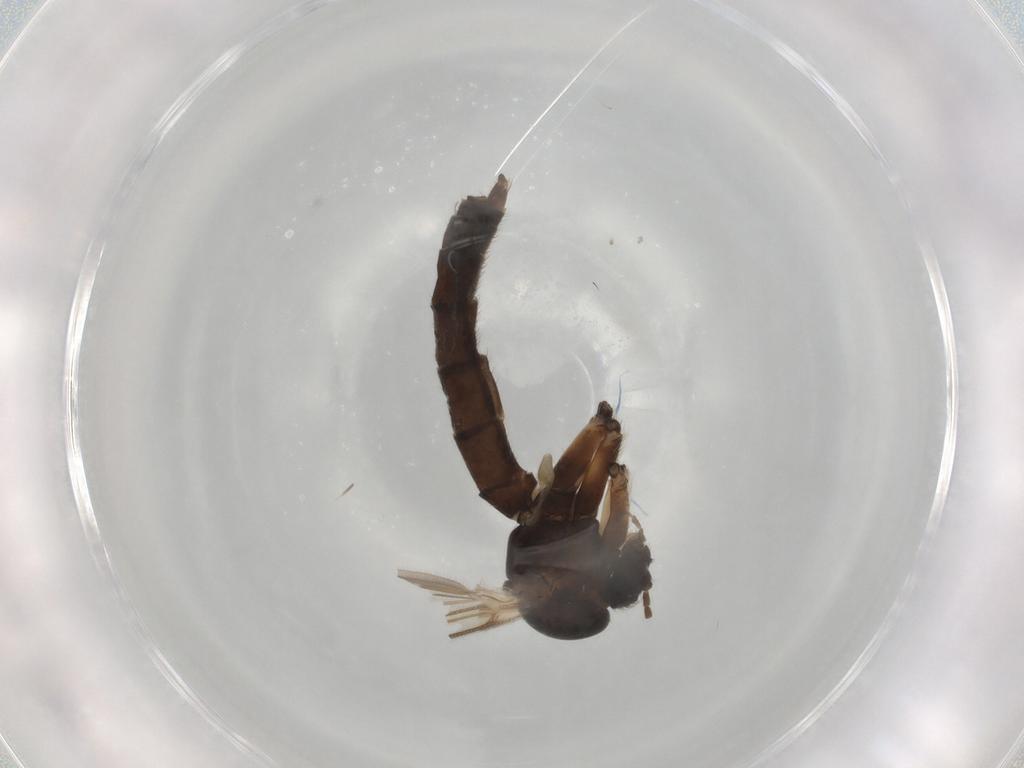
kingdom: Animalia
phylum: Arthropoda
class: Insecta
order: Diptera
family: Mycetophilidae
